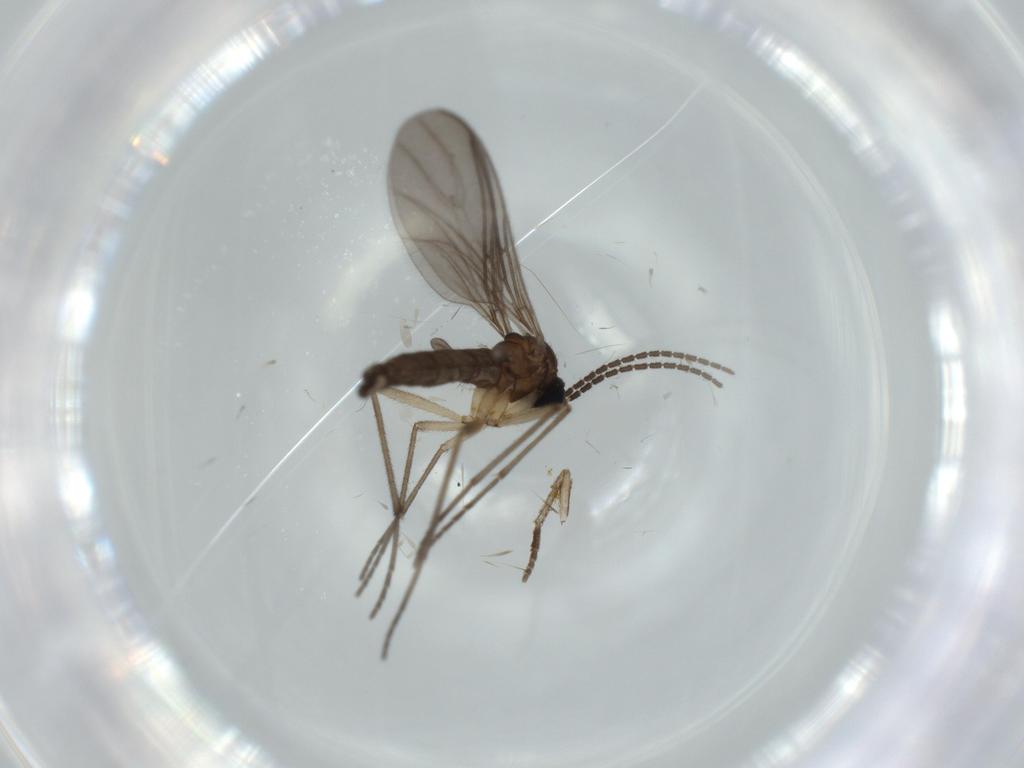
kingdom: Animalia
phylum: Arthropoda
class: Insecta
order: Diptera
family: Sciaridae
